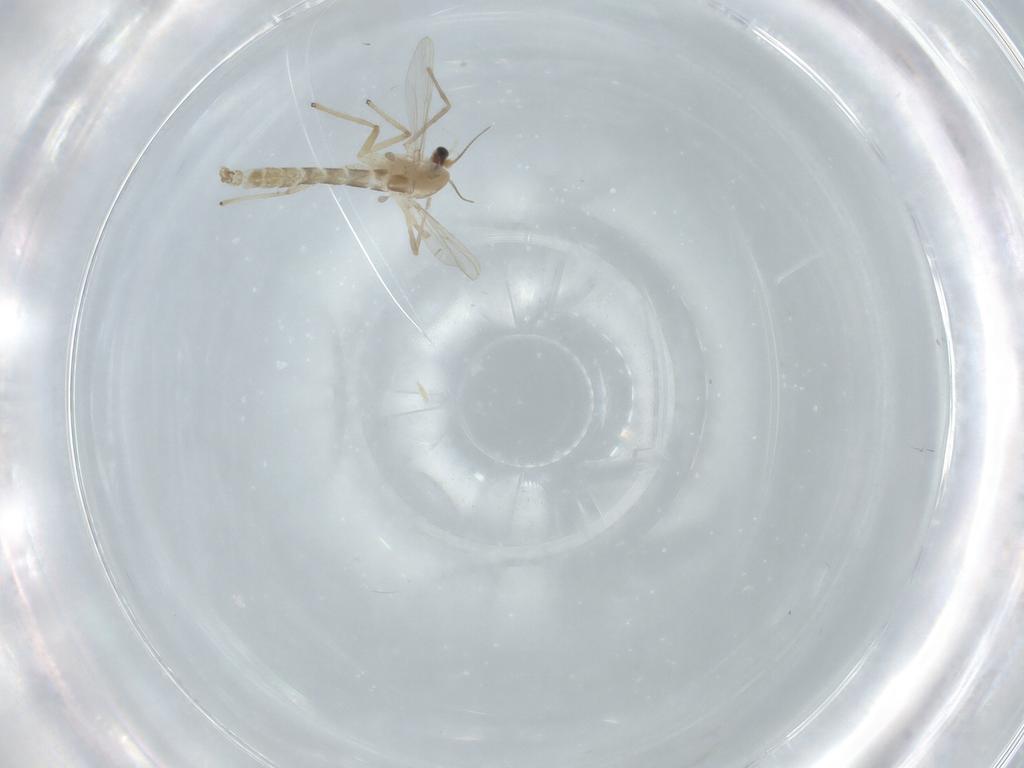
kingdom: Animalia
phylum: Arthropoda
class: Insecta
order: Diptera
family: Chironomidae
